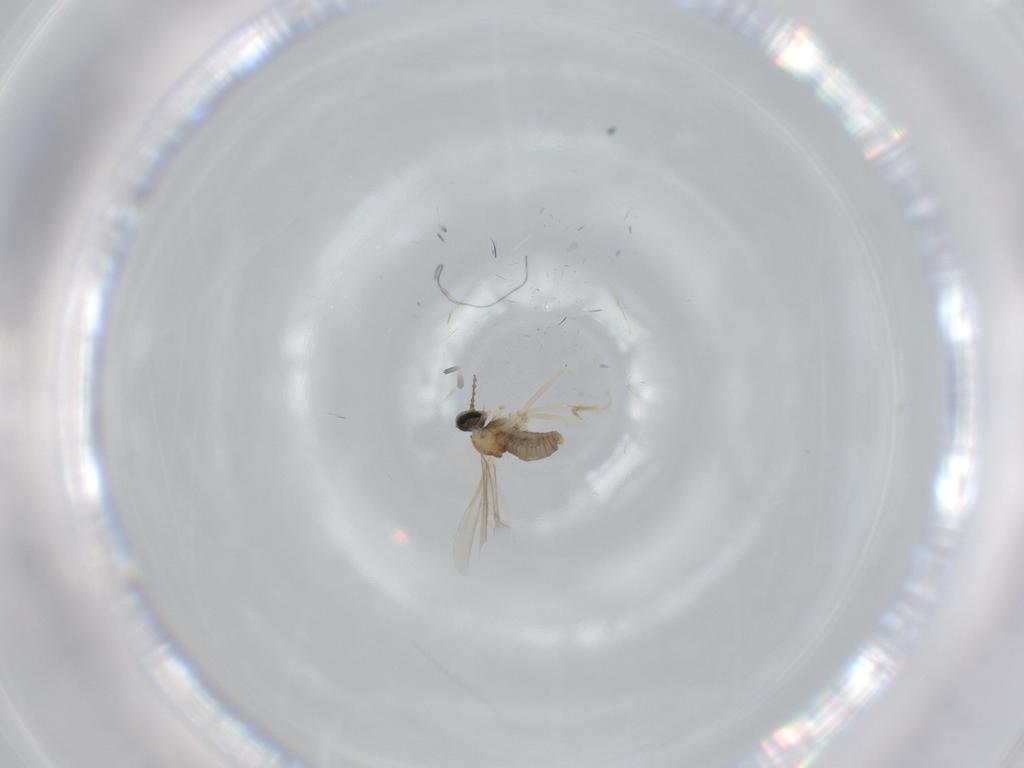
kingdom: Animalia
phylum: Arthropoda
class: Insecta
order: Diptera
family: Cecidomyiidae
